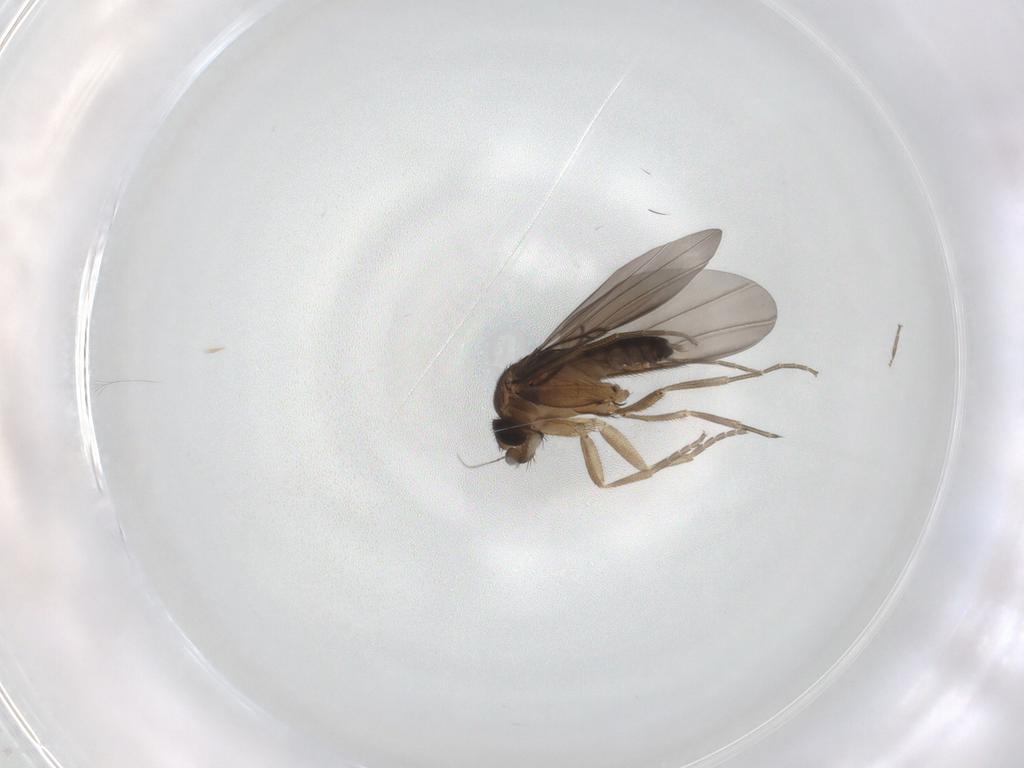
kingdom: Animalia
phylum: Arthropoda
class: Insecta
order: Diptera
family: Phoridae
